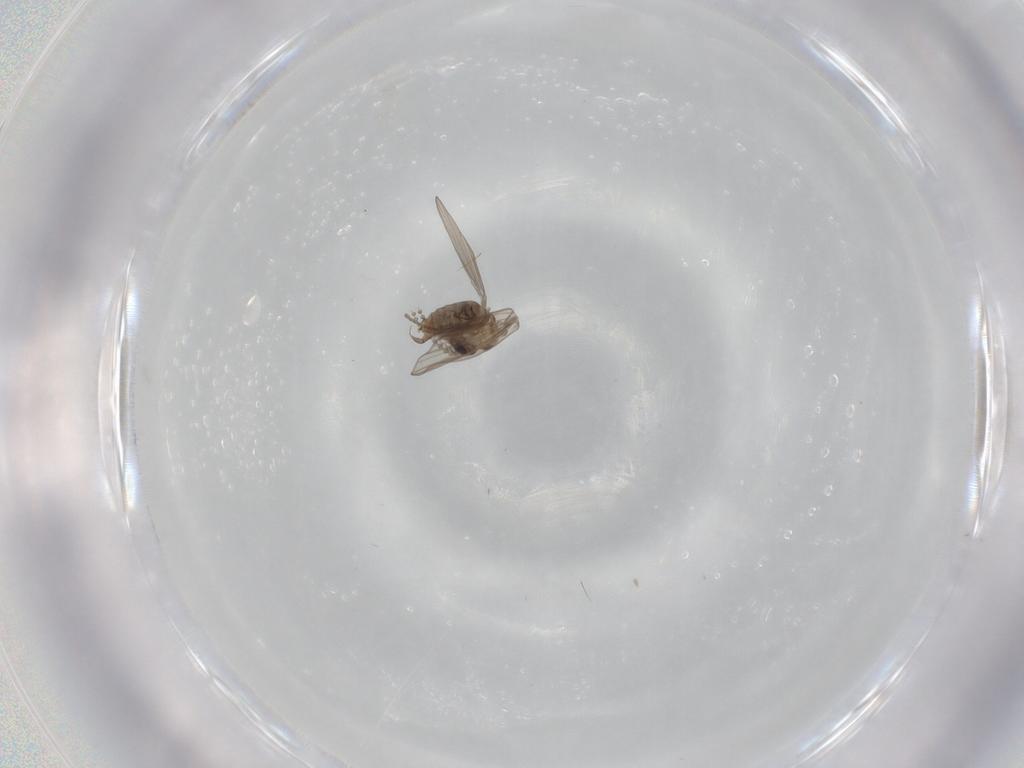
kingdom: Animalia
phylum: Arthropoda
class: Insecta
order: Diptera
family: Psychodidae
